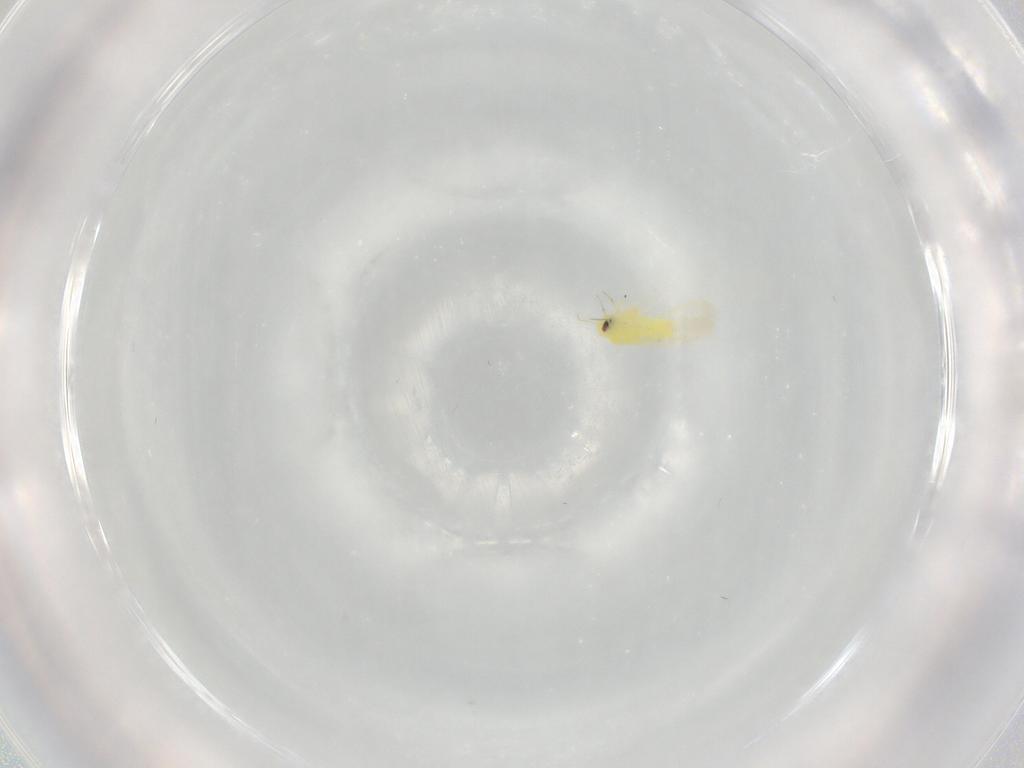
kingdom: Animalia
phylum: Arthropoda
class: Insecta
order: Hemiptera
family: Aleyrodidae
